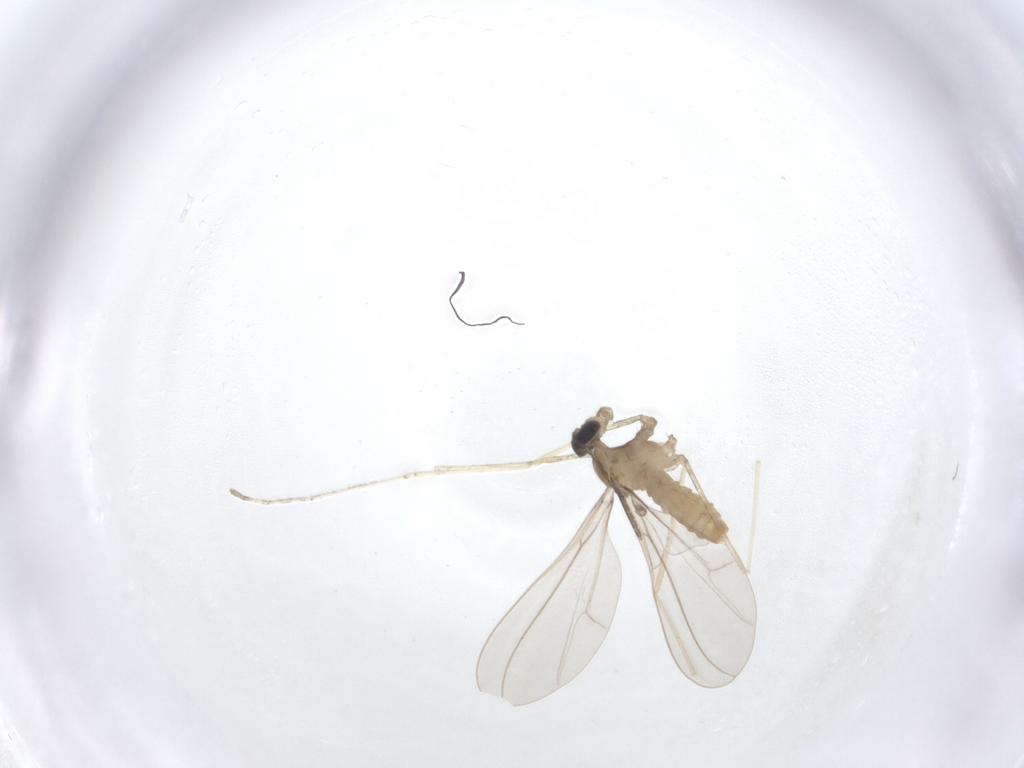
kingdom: Animalia
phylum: Arthropoda
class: Insecta
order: Diptera
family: Cecidomyiidae
